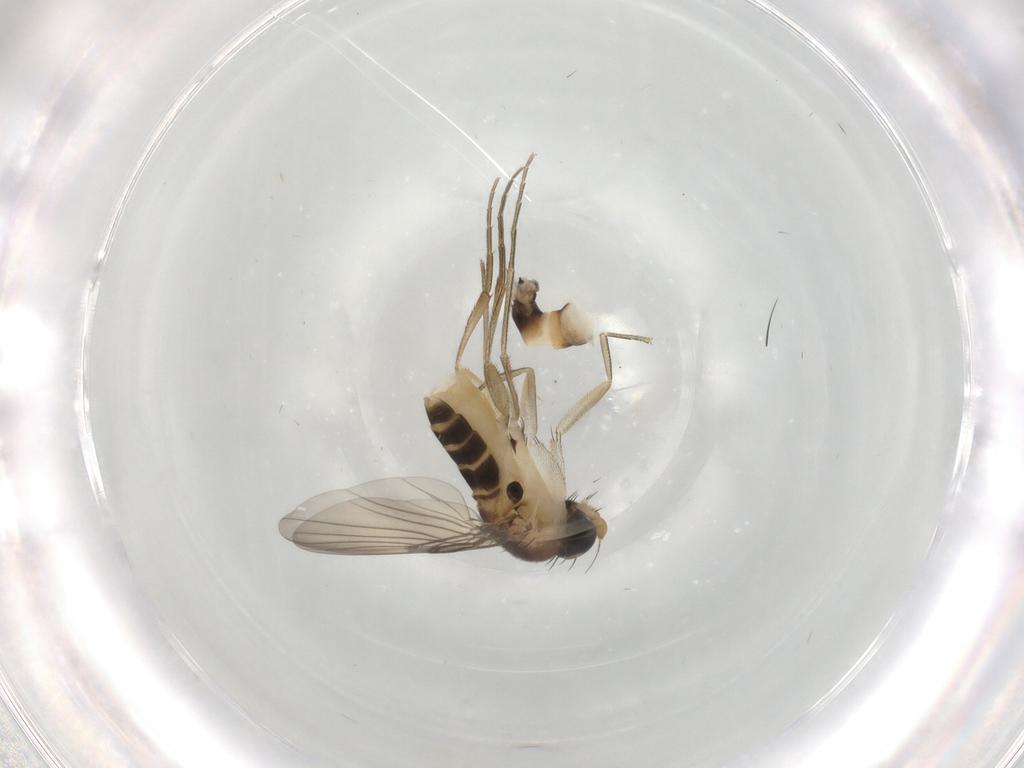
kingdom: Animalia
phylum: Arthropoda
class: Insecta
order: Diptera
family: Phoridae
